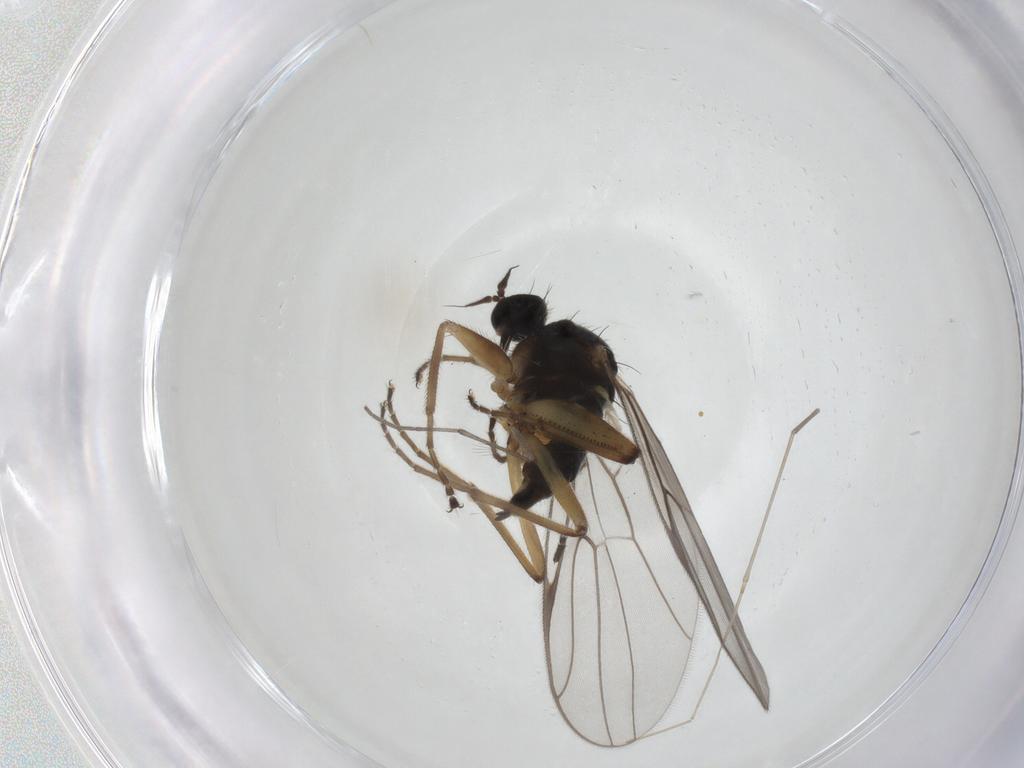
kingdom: Animalia
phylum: Arthropoda
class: Insecta
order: Diptera
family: Hybotidae
